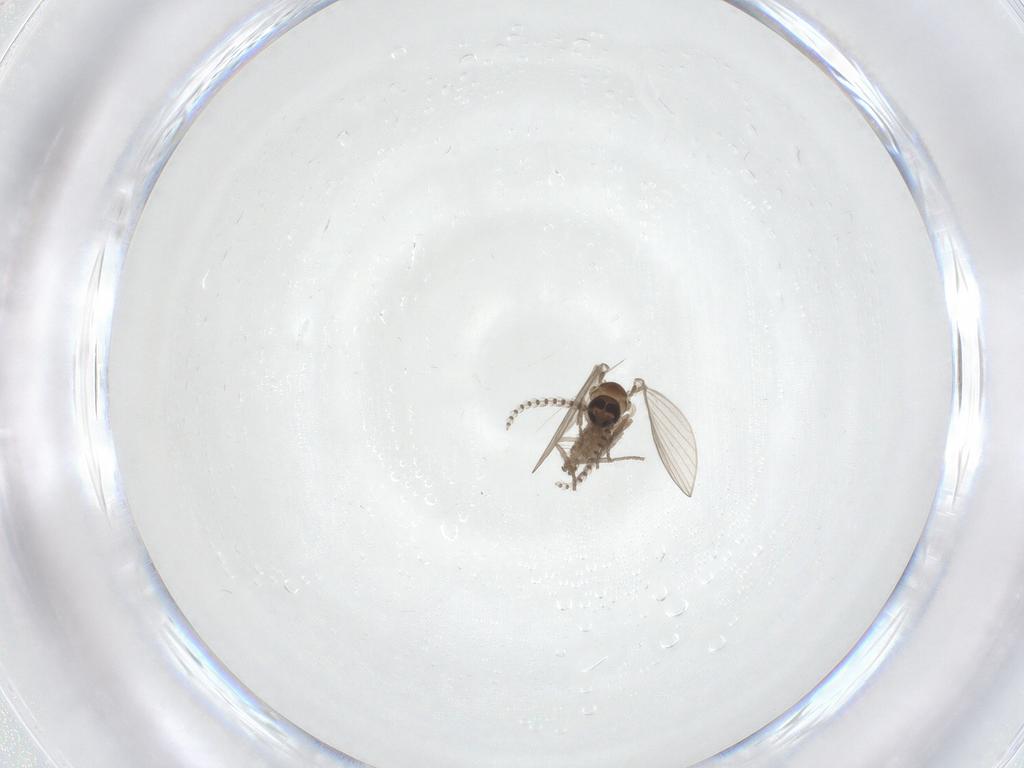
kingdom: Animalia
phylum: Arthropoda
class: Insecta
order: Diptera
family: Psychodidae
